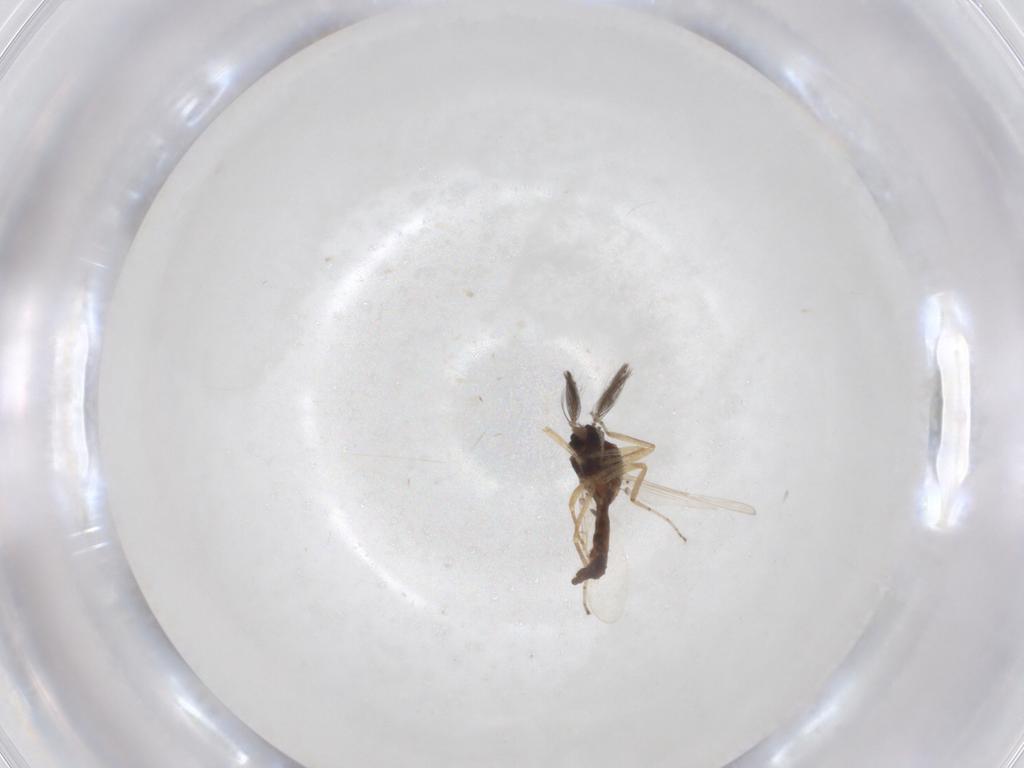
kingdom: Animalia
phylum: Arthropoda
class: Insecta
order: Diptera
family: Ceratopogonidae
